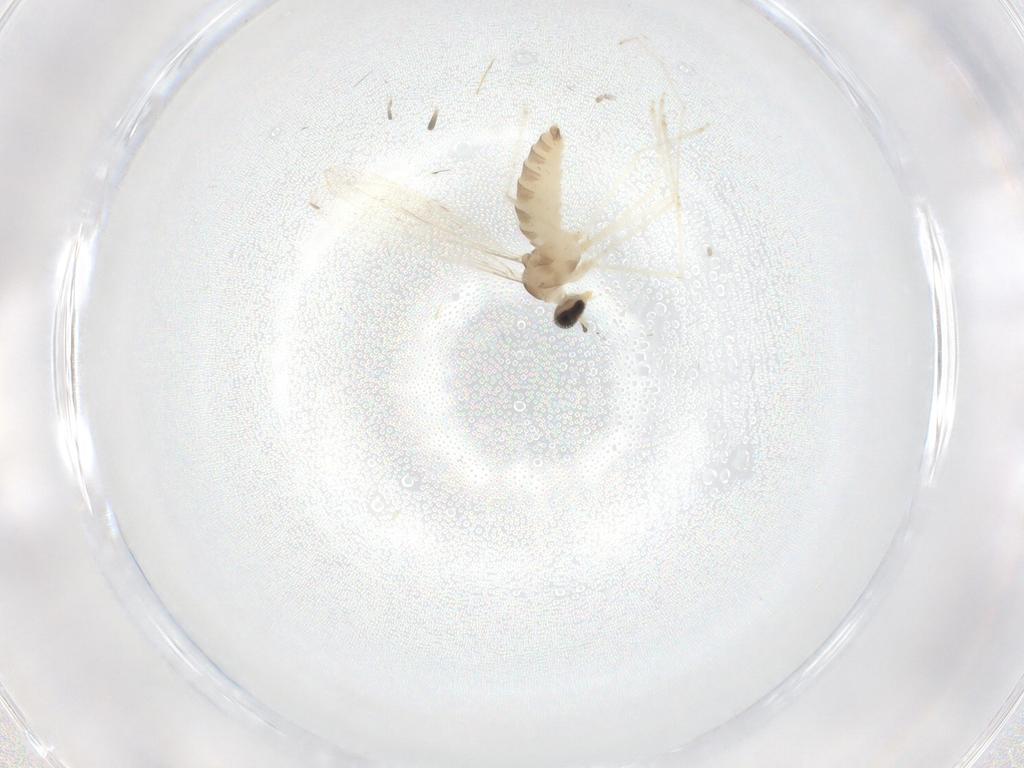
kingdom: Animalia
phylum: Arthropoda
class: Insecta
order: Diptera
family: Cecidomyiidae
